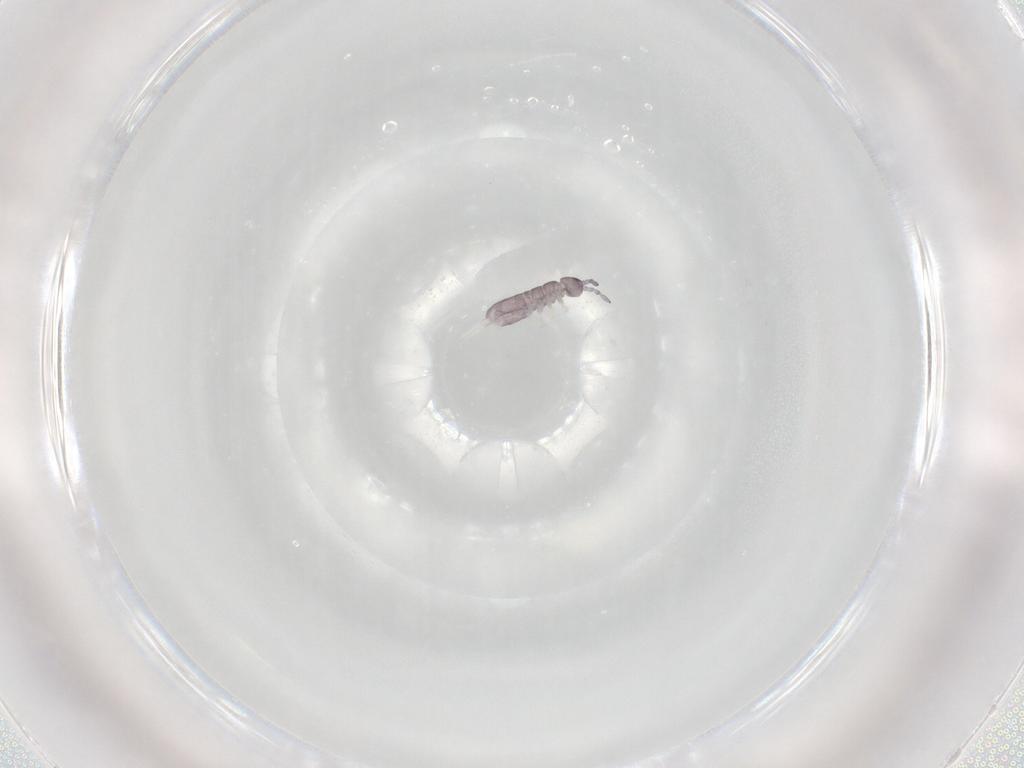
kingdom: Animalia
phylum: Arthropoda
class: Collembola
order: Entomobryomorpha
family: Isotomidae
